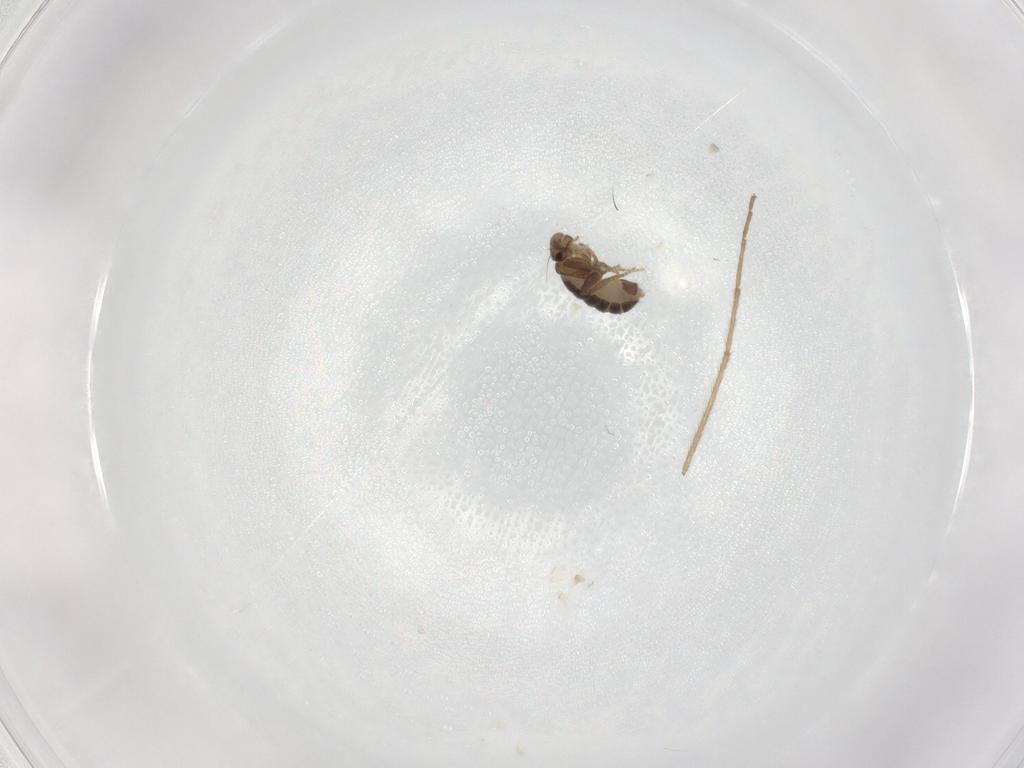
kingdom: Animalia
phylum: Arthropoda
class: Insecta
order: Diptera
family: Phoridae
